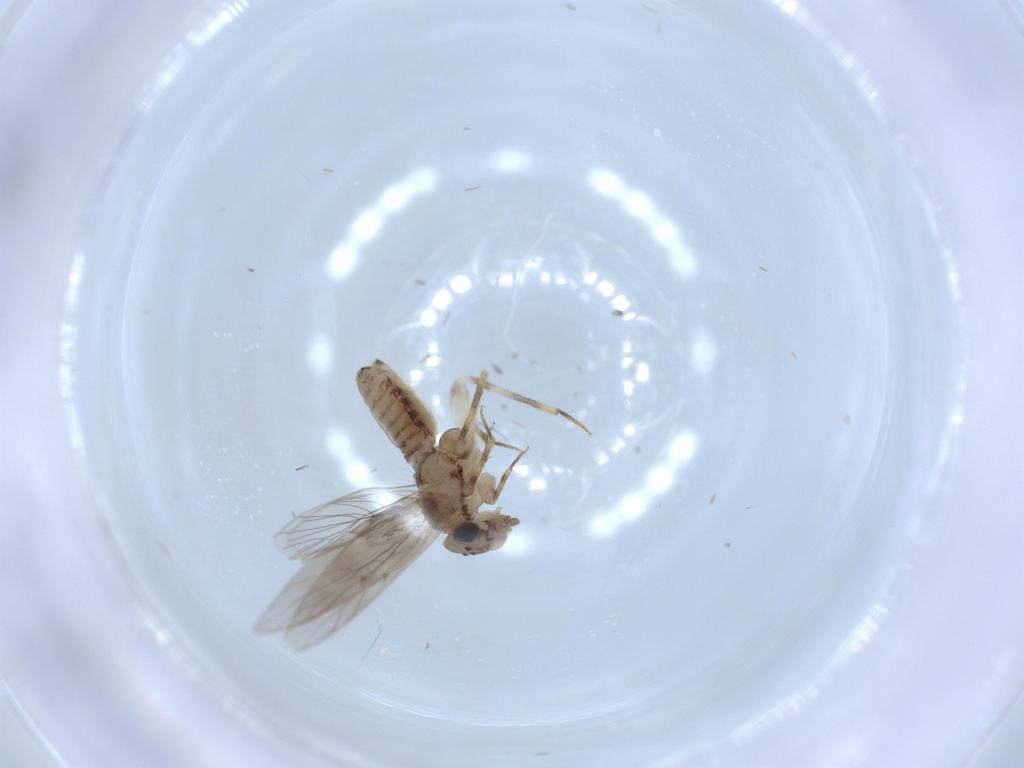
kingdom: Animalia
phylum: Arthropoda
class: Insecta
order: Psocodea
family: Lepidopsocidae
